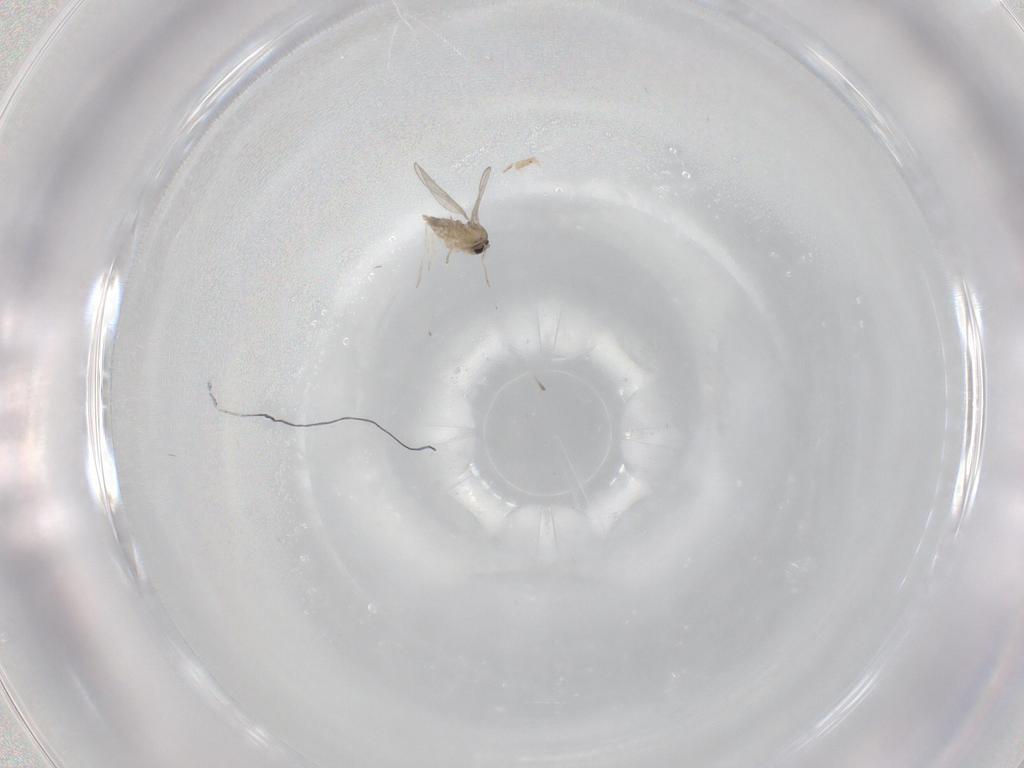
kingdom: Animalia
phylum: Arthropoda
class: Insecta
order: Diptera
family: Cecidomyiidae
